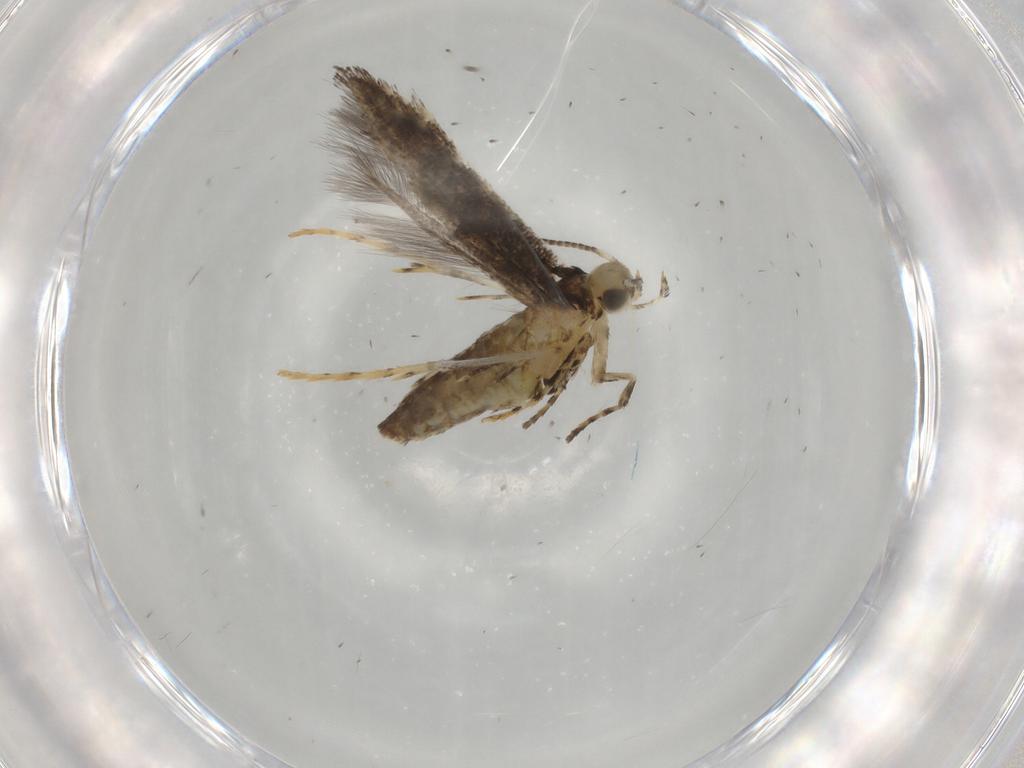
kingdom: Animalia
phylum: Arthropoda
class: Insecta
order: Lepidoptera
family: Gracillariidae
